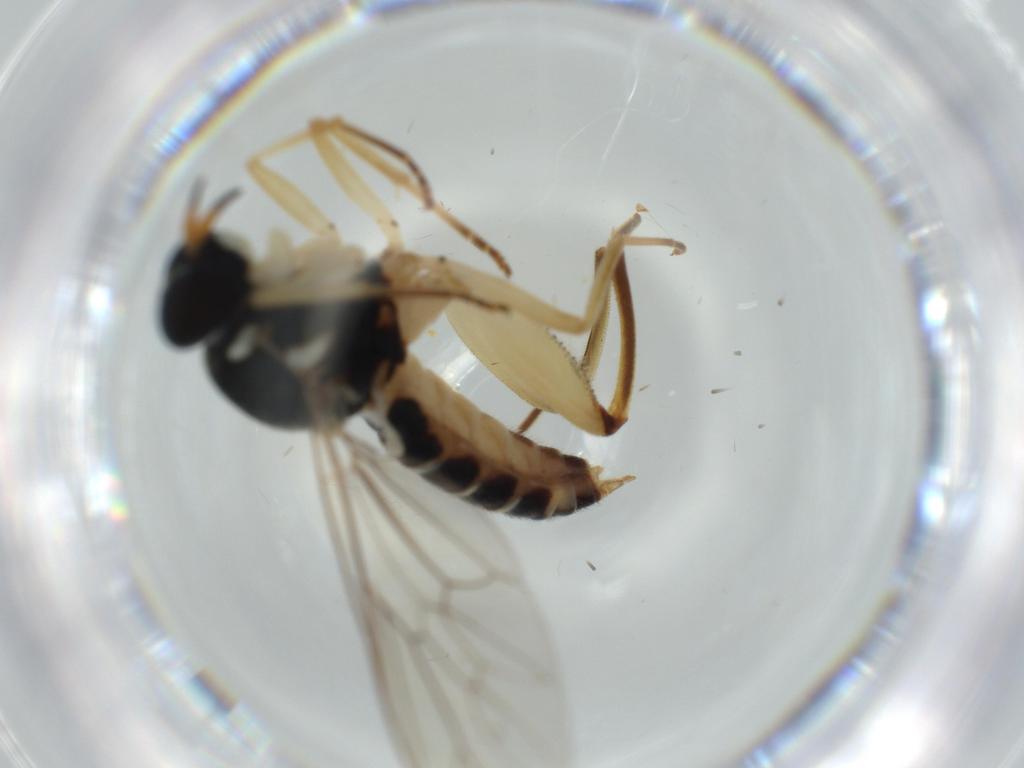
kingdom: Animalia
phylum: Arthropoda
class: Insecta
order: Diptera
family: Xylomyidae
